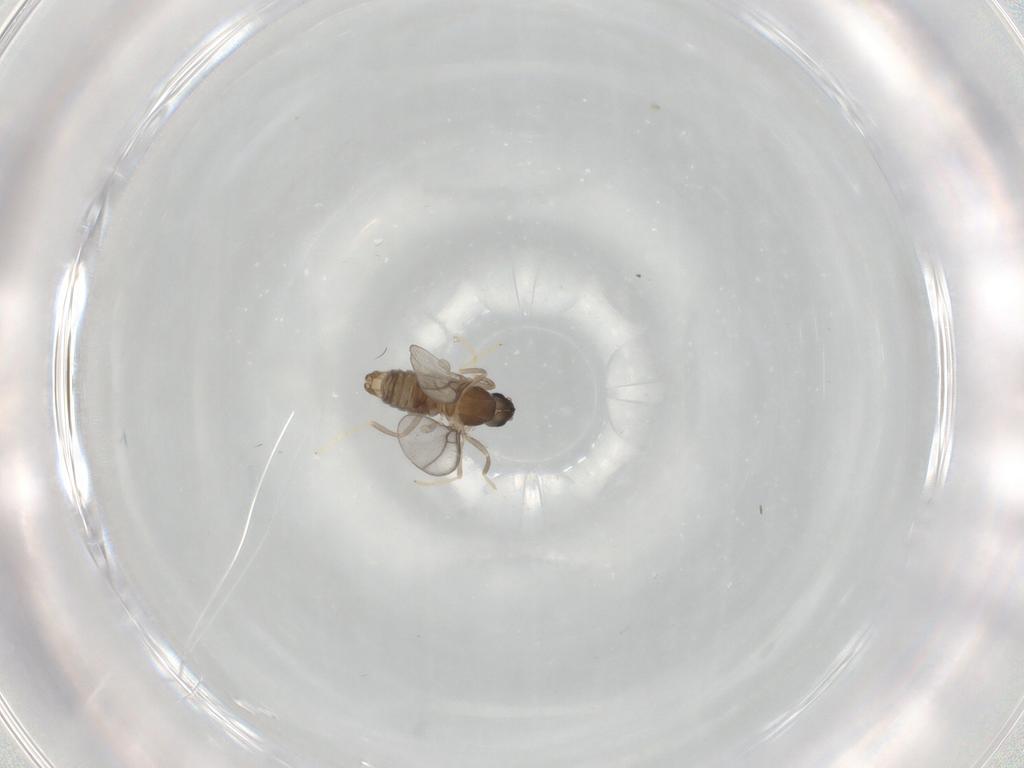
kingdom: Animalia
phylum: Arthropoda
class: Insecta
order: Diptera
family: Cecidomyiidae
